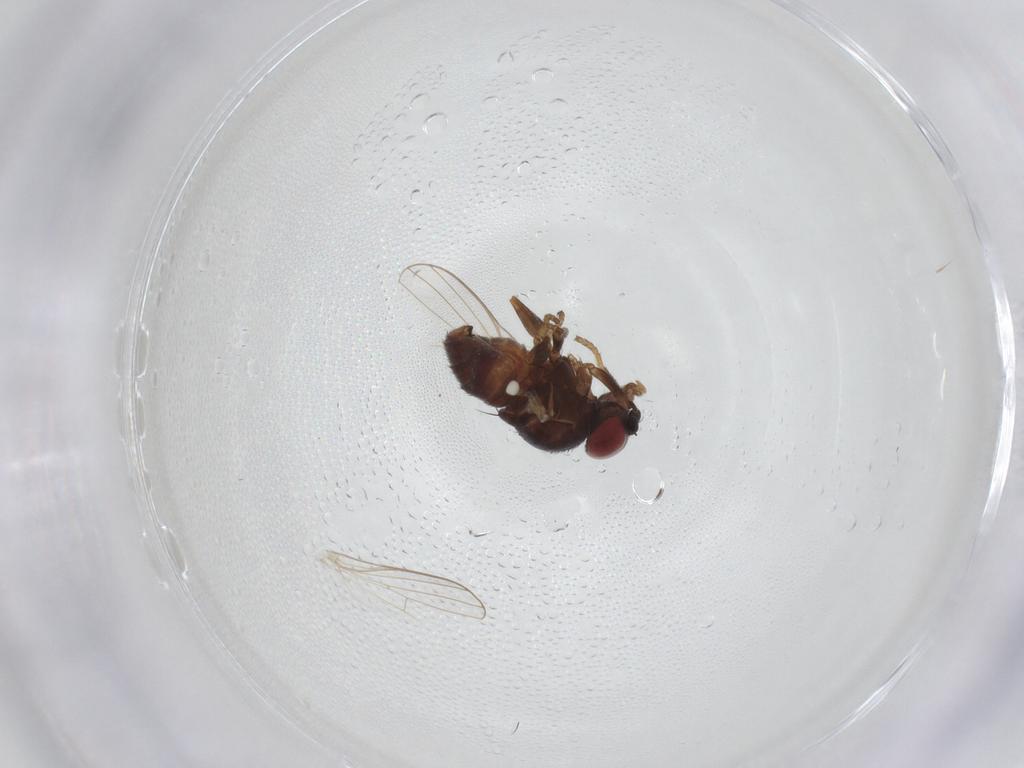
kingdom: Animalia
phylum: Arthropoda
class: Insecta
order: Diptera
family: Chamaemyiidae
